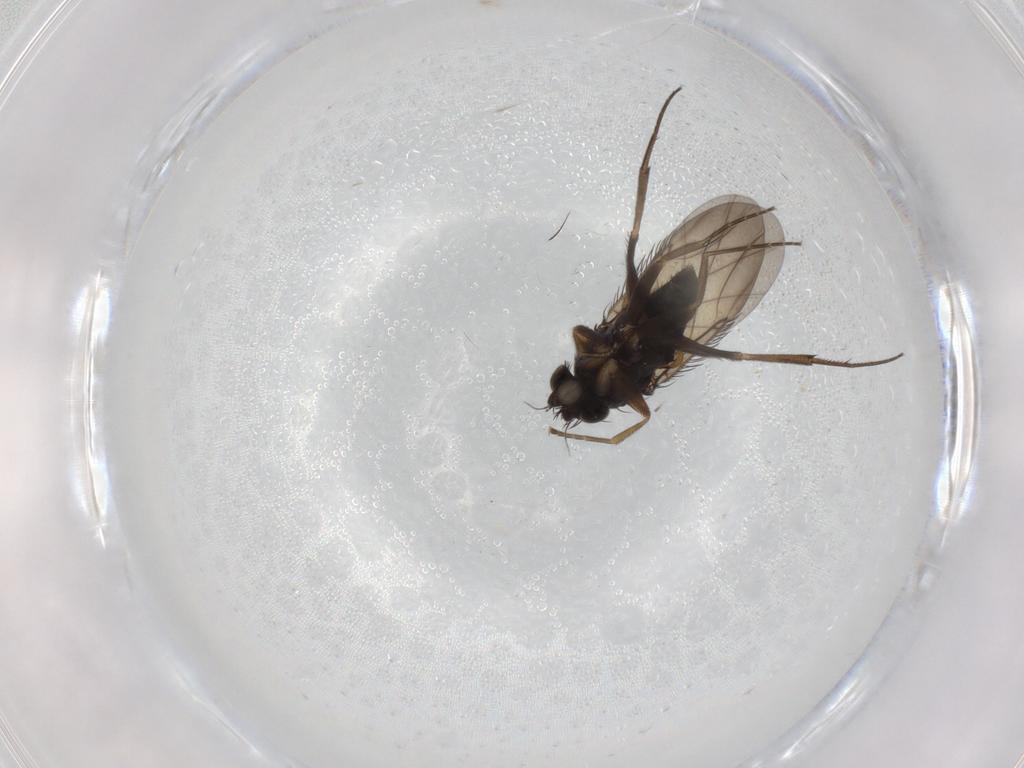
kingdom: Animalia
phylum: Arthropoda
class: Insecta
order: Diptera
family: Phoridae
